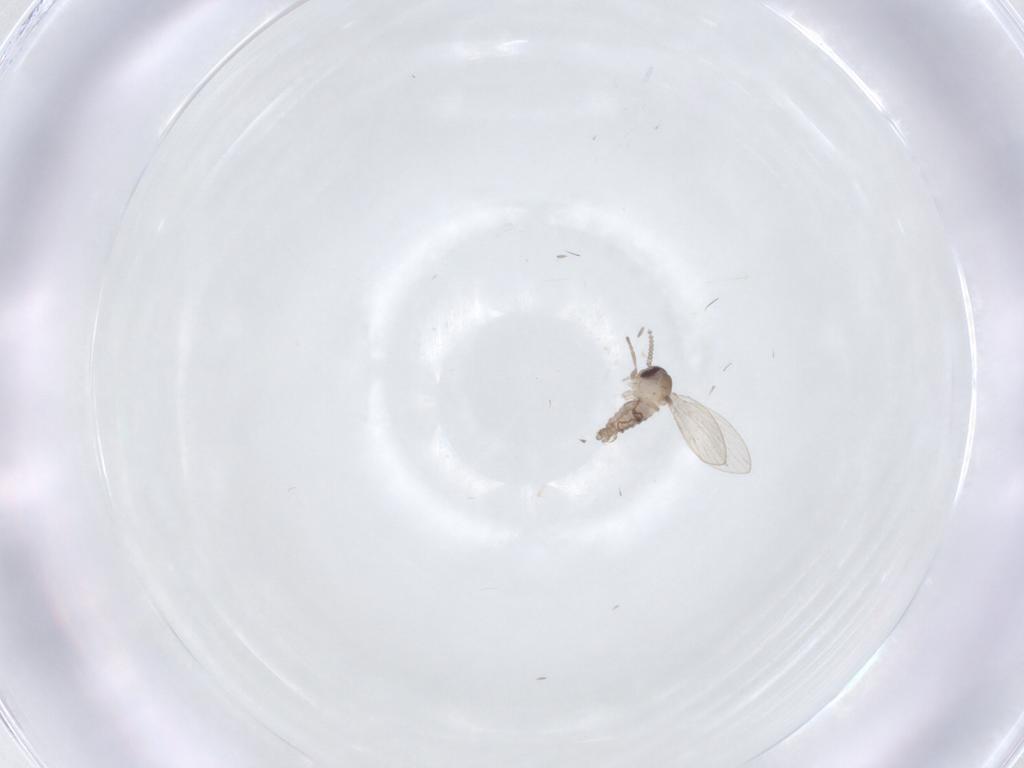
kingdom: Animalia
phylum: Arthropoda
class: Insecta
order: Diptera
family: Psychodidae
